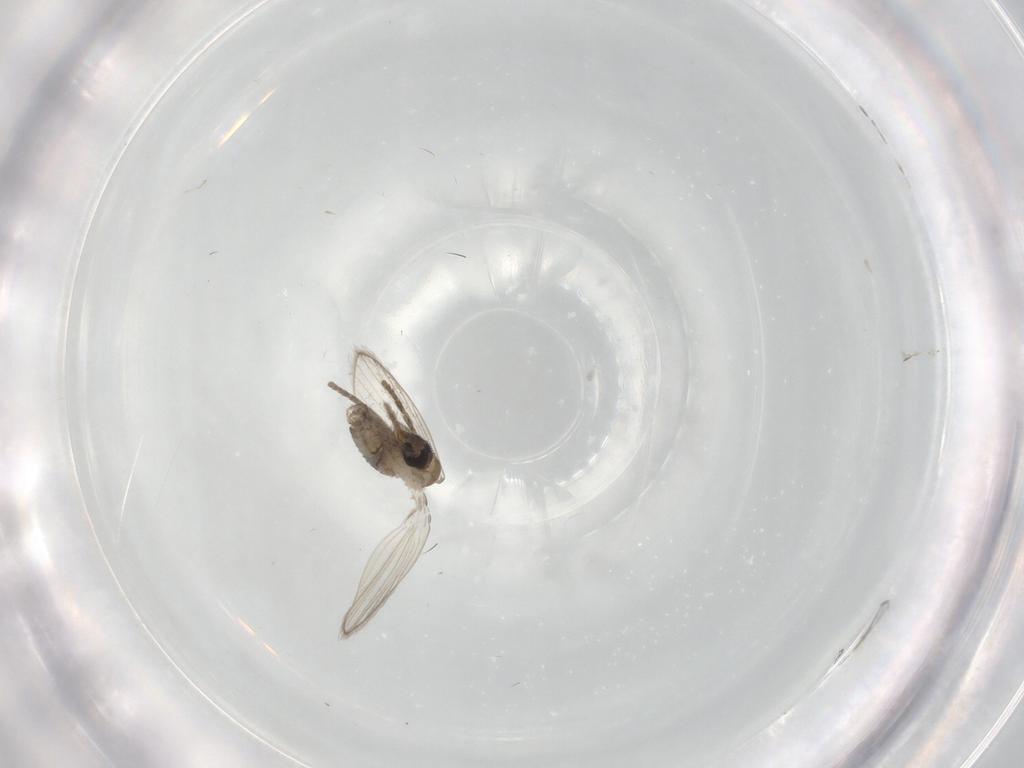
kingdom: Animalia
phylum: Arthropoda
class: Insecta
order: Diptera
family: Psychodidae
